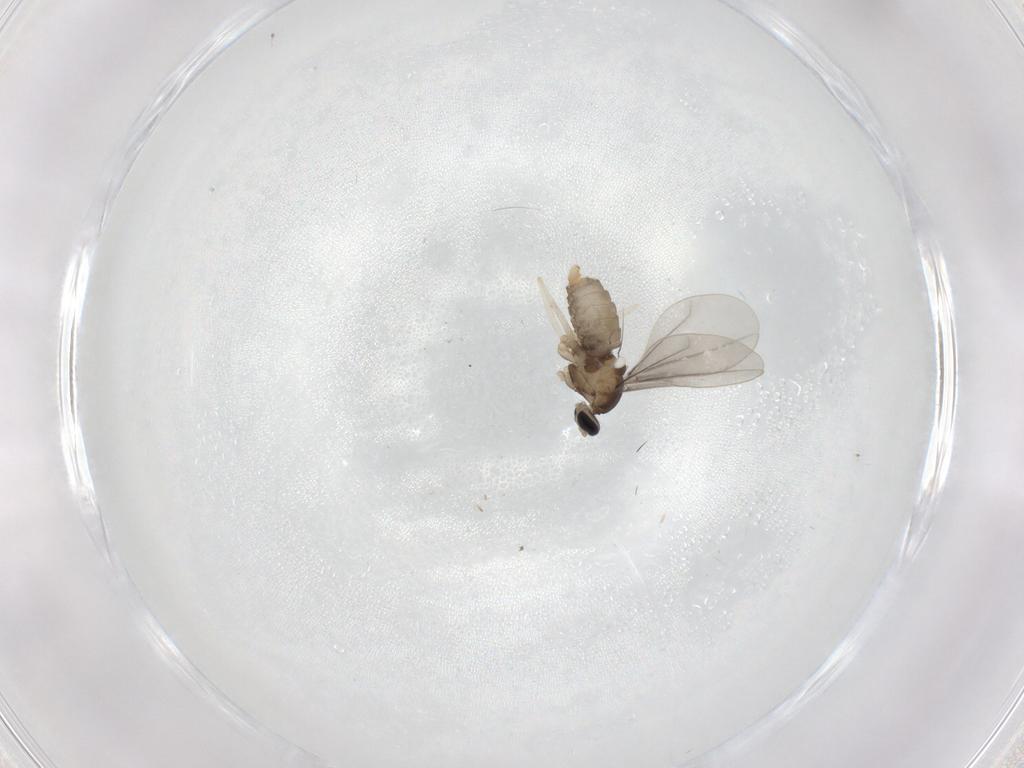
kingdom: Animalia
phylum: Arthropoda
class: Insecta
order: Diptera
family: Cecidomyiidae
